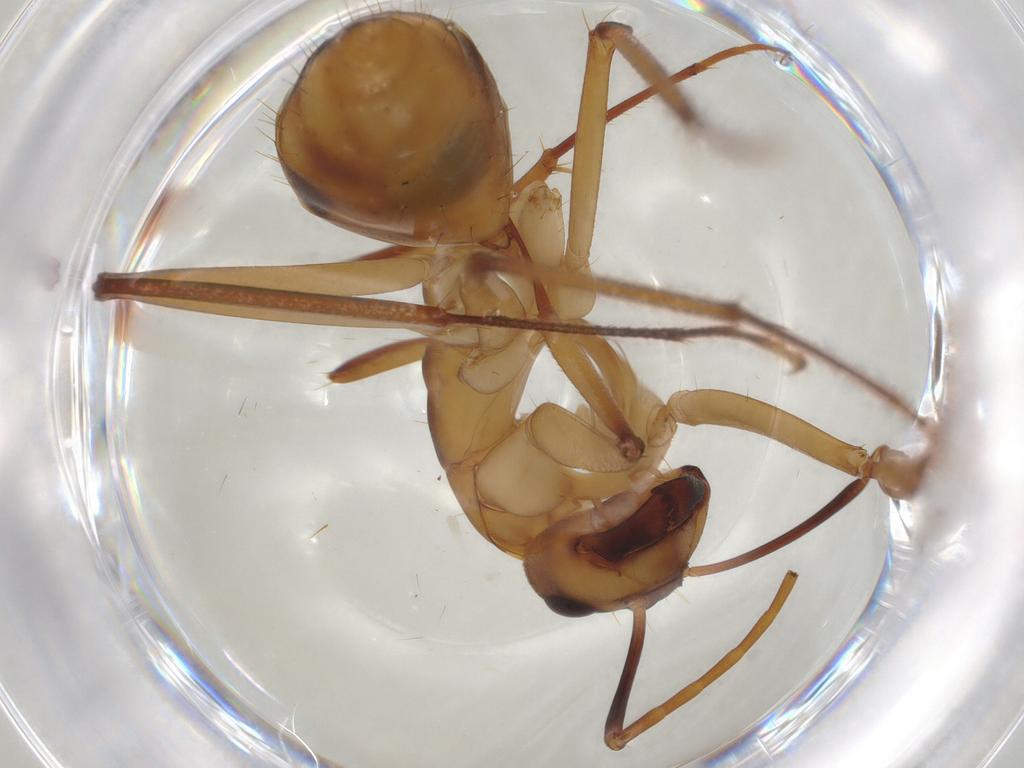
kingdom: Animalia
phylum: Arthropoda
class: Insecta
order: Hymenoptera
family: Formicidae
